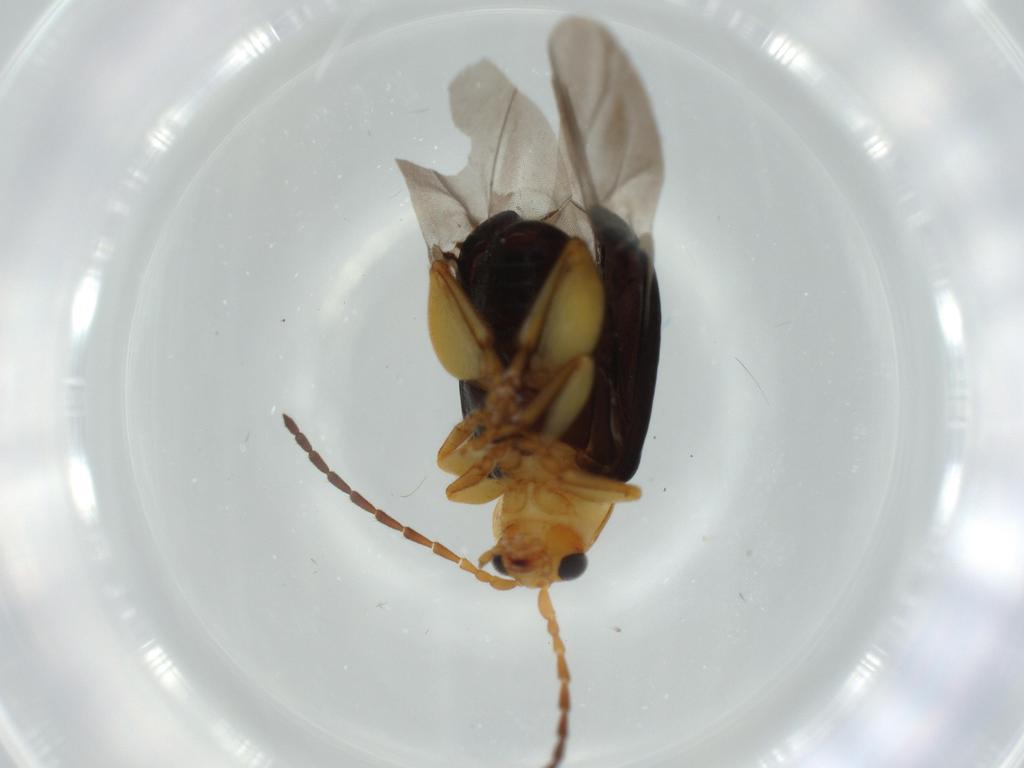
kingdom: Animalia
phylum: Arthropoda
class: Insecta
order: Coleoptera
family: Chrysomelidae
